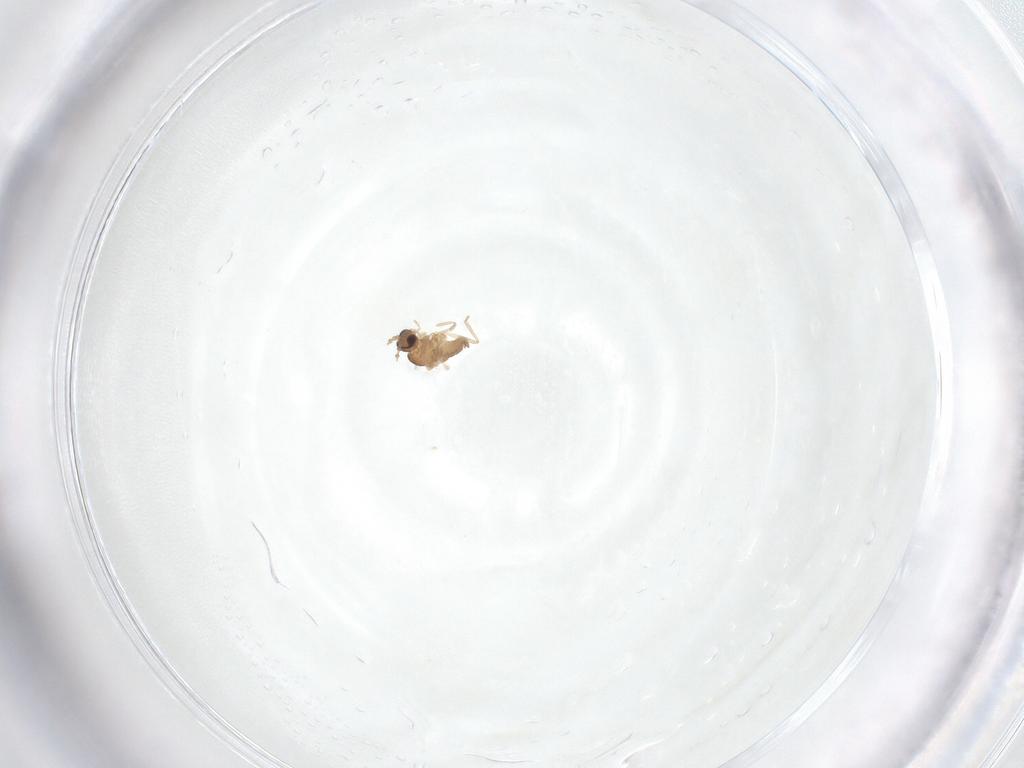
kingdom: Animalia
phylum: Arthropoda
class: Insecta
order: Diptera
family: Cecidomyiidae
